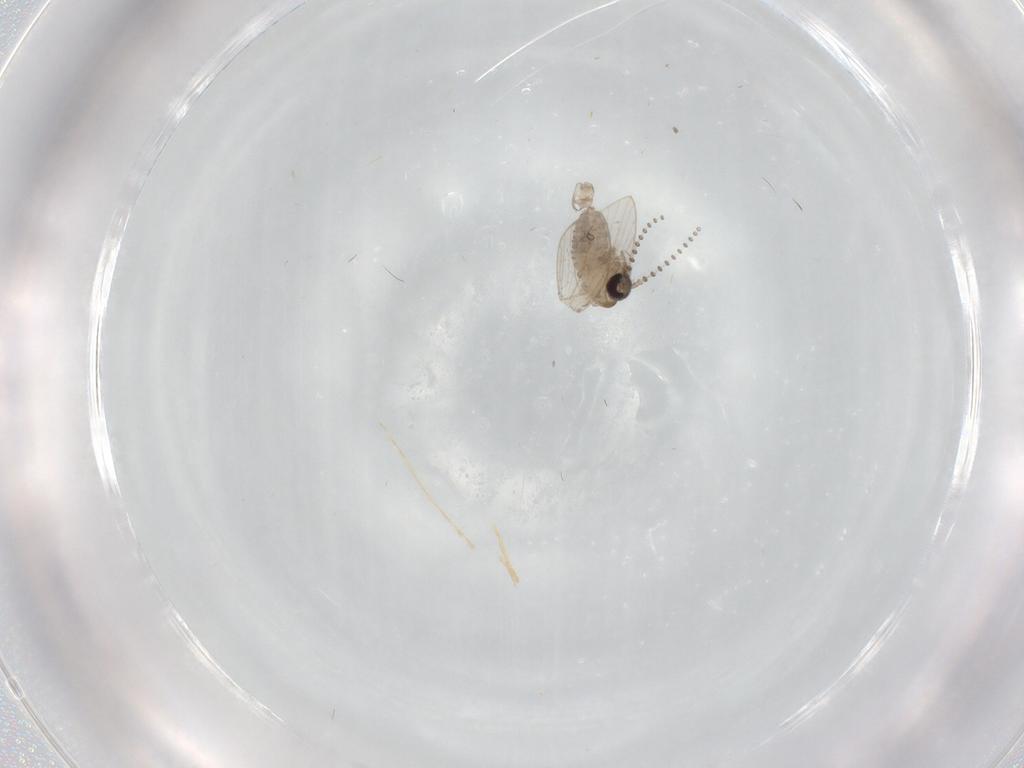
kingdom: Animalia
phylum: Arthropoda
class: Insecta
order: Diptera
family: Psychodidae
